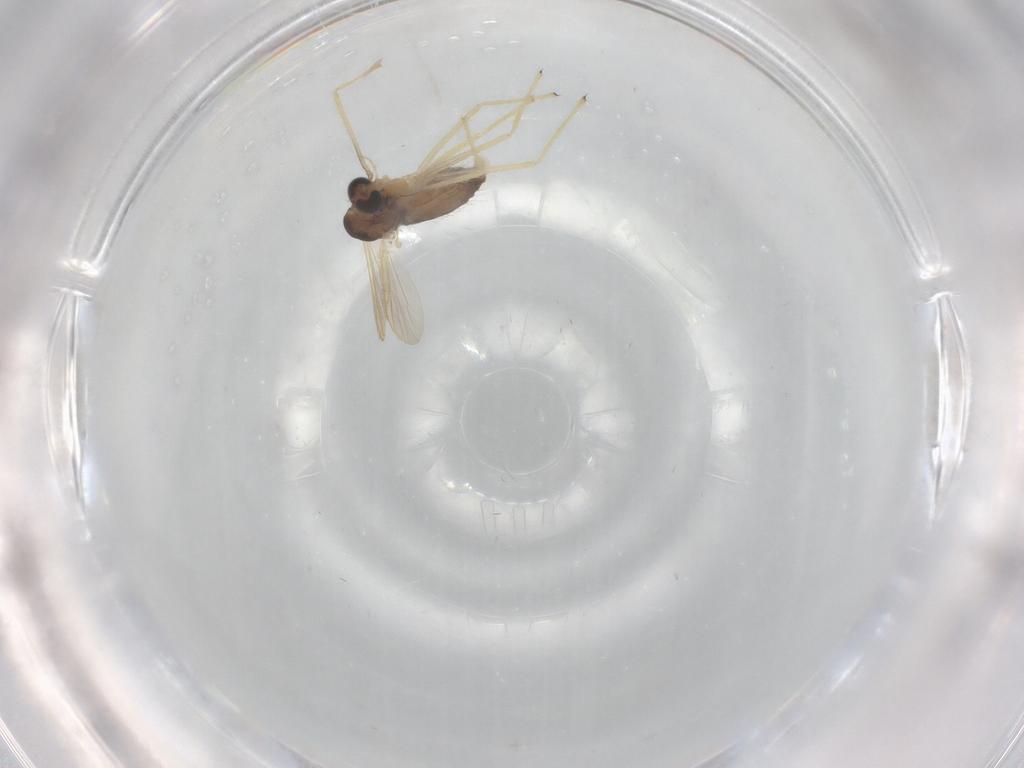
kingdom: Animalia
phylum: Arthropoda
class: Insecta
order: Diptera
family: Chironomidae
